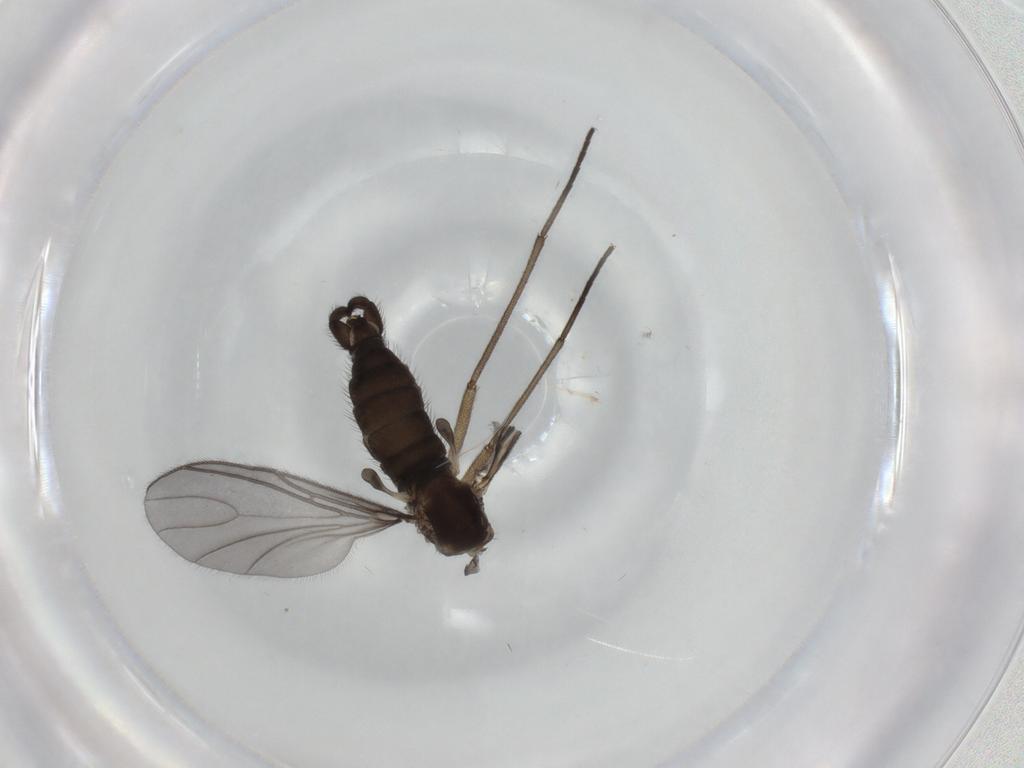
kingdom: Animalia
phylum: Arthropoda
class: Insecta
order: Diptera
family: Sciaridae
